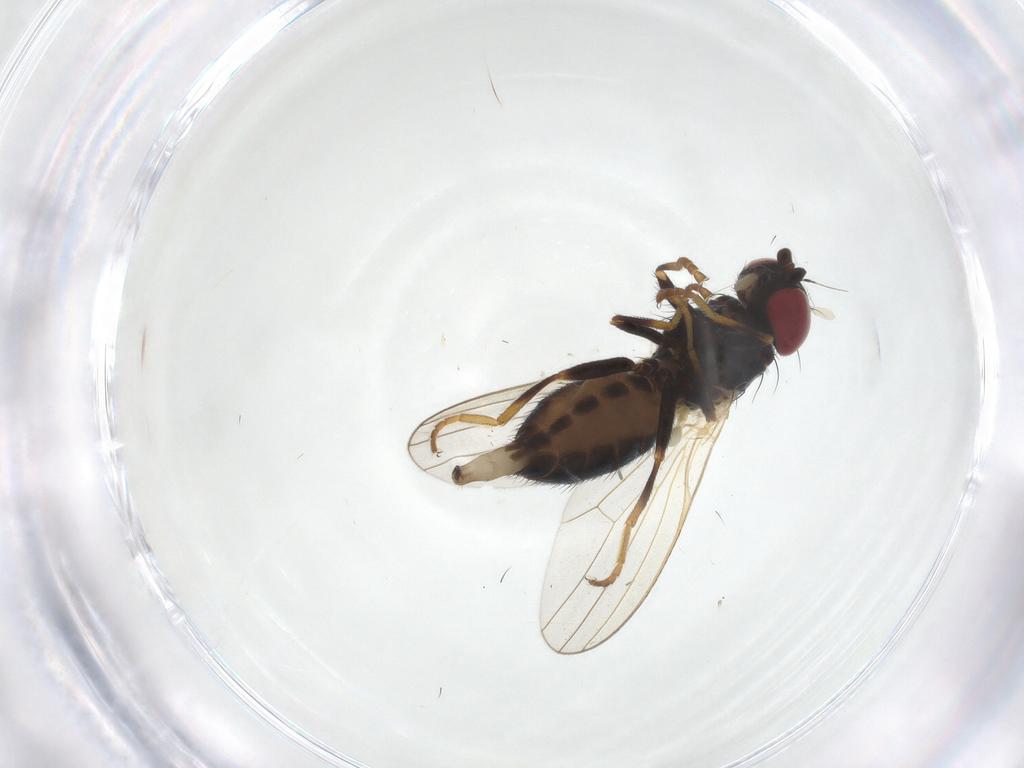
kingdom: Animalia
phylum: Arthropoda
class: Insecta
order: Diptera
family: Chamaemyiidae
